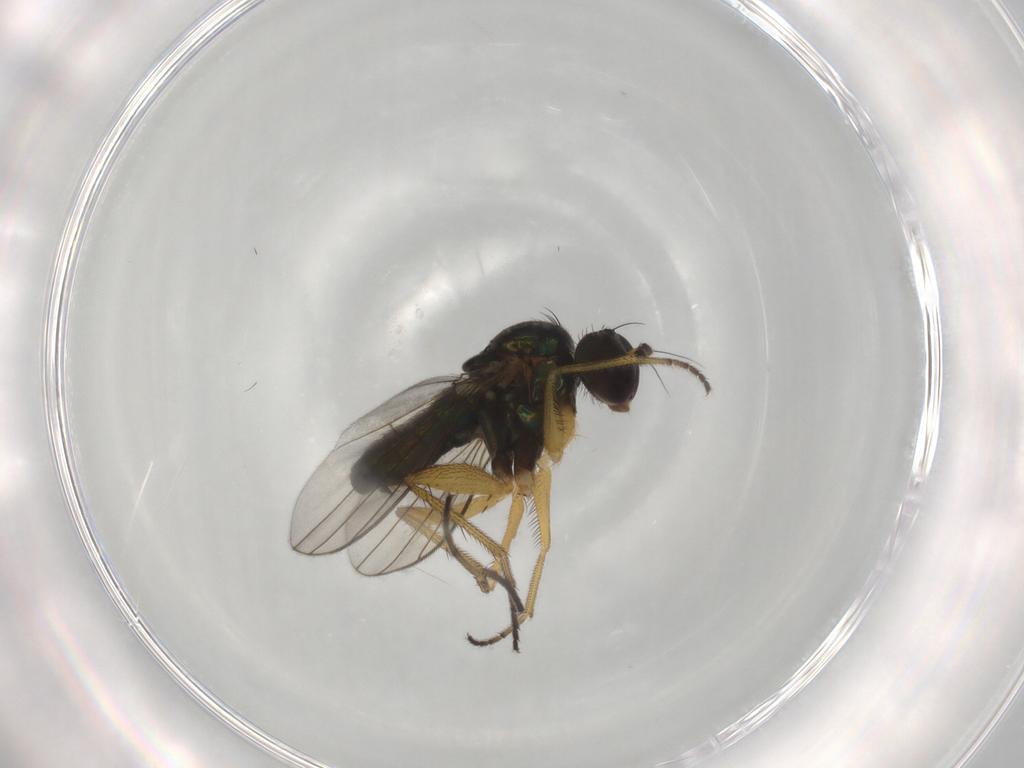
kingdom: Animalia
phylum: Arthropoda
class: Insecta
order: Diptera
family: Dolichopodidae
